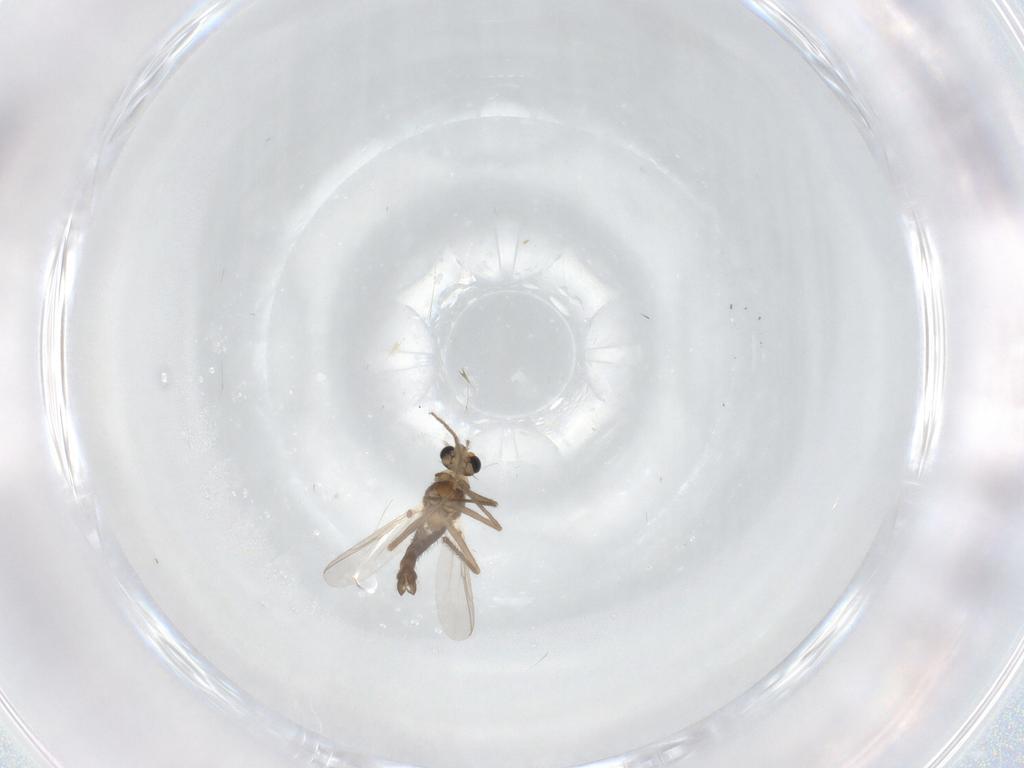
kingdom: Animalia
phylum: Arthropoda
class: Insecta
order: Diptera
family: Chironomidae
